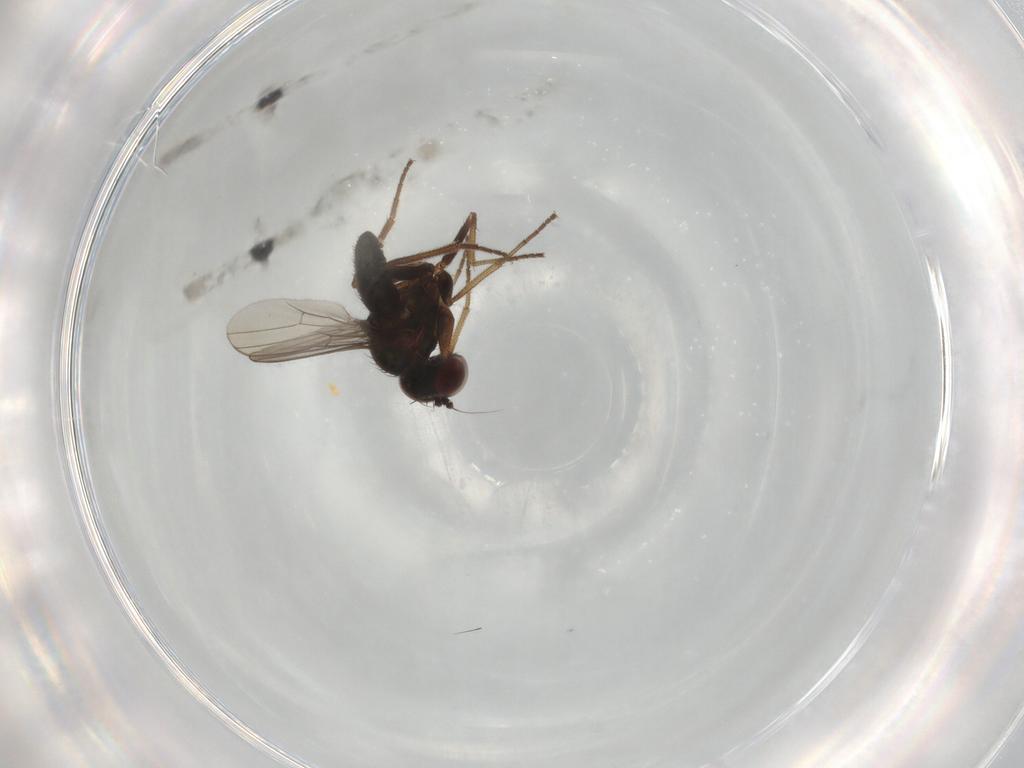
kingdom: Animalia
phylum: Arthropoda
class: Insecta
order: Diptera
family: Dolichopodidae
